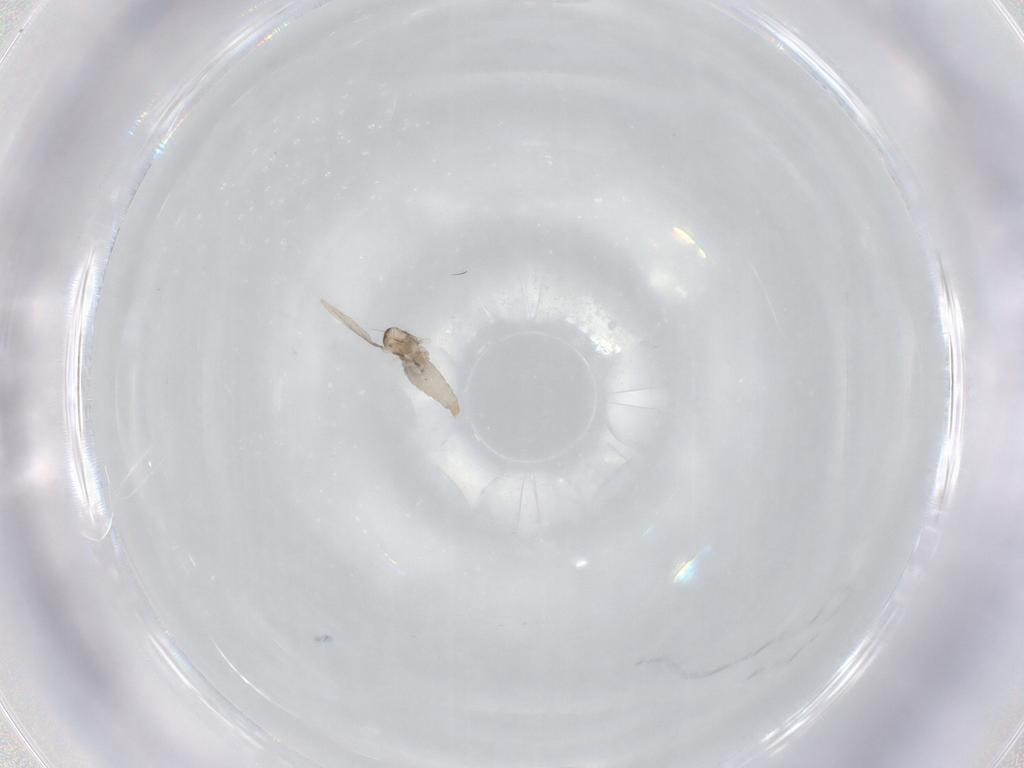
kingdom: Animalia
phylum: Arthropoda
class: Insecta
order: Diptera
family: Cecidomyiidae
